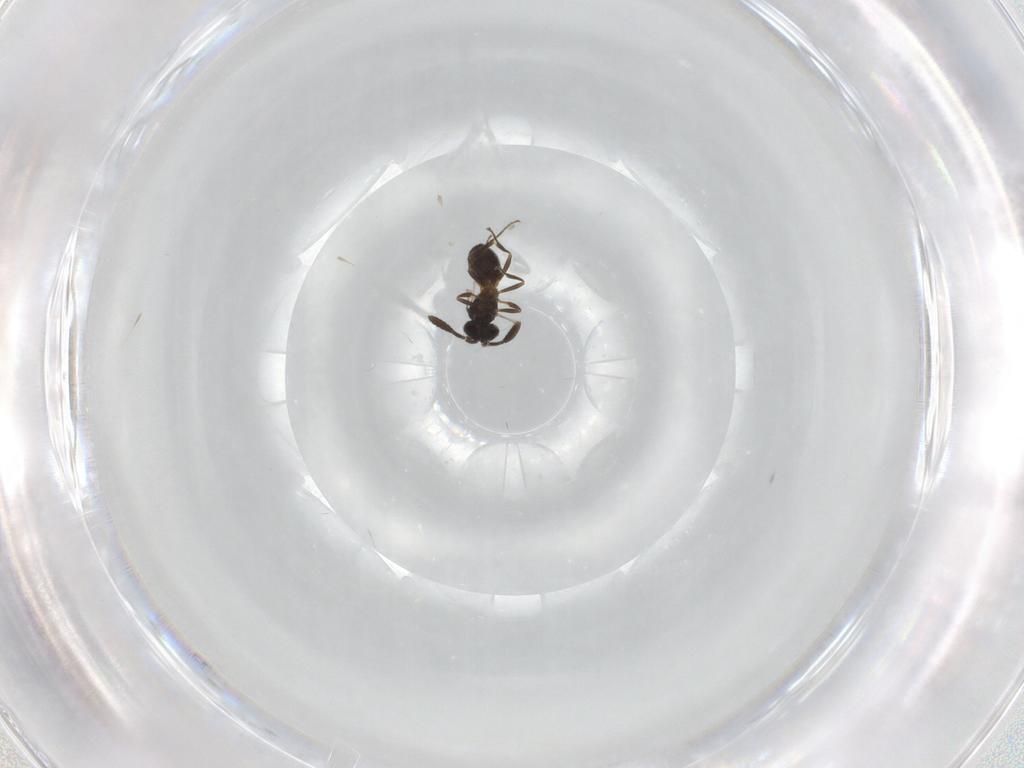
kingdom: Animalia
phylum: Arthropoda
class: Insecta
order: Hymenoptera
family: Scelionidae
